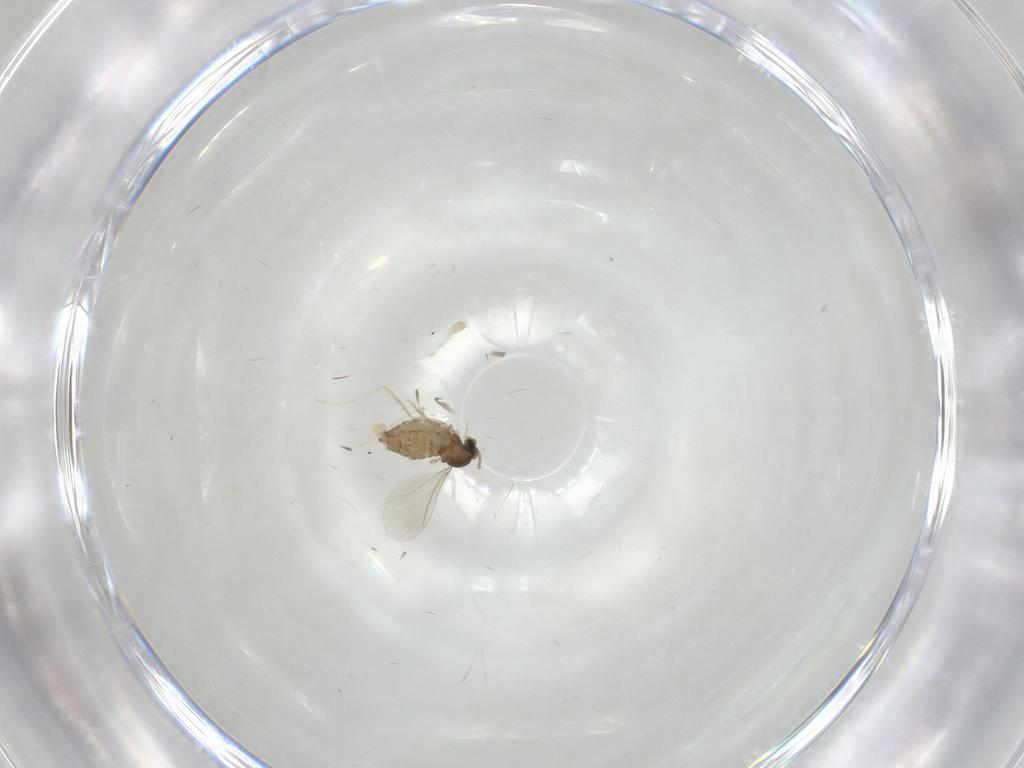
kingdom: Animalia
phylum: Arthropoda
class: Insecta
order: Diptera
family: Cecidomyiidae
